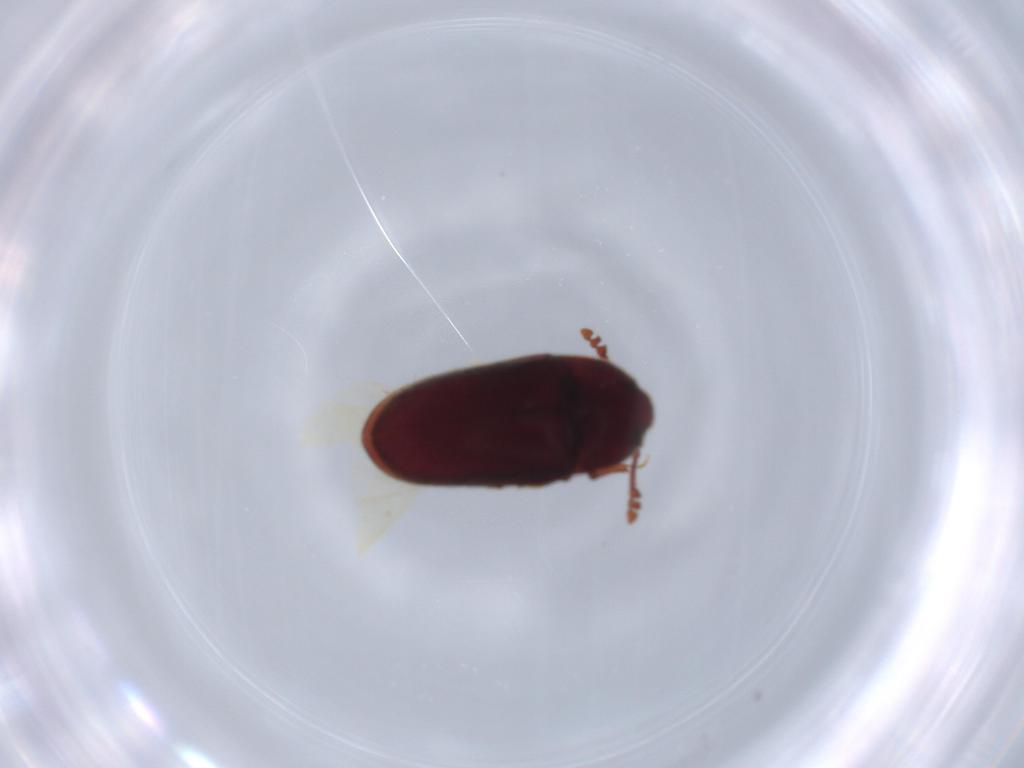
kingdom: Animalia
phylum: Arthropoda
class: Insecta
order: Coleoptera
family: Throscidae
